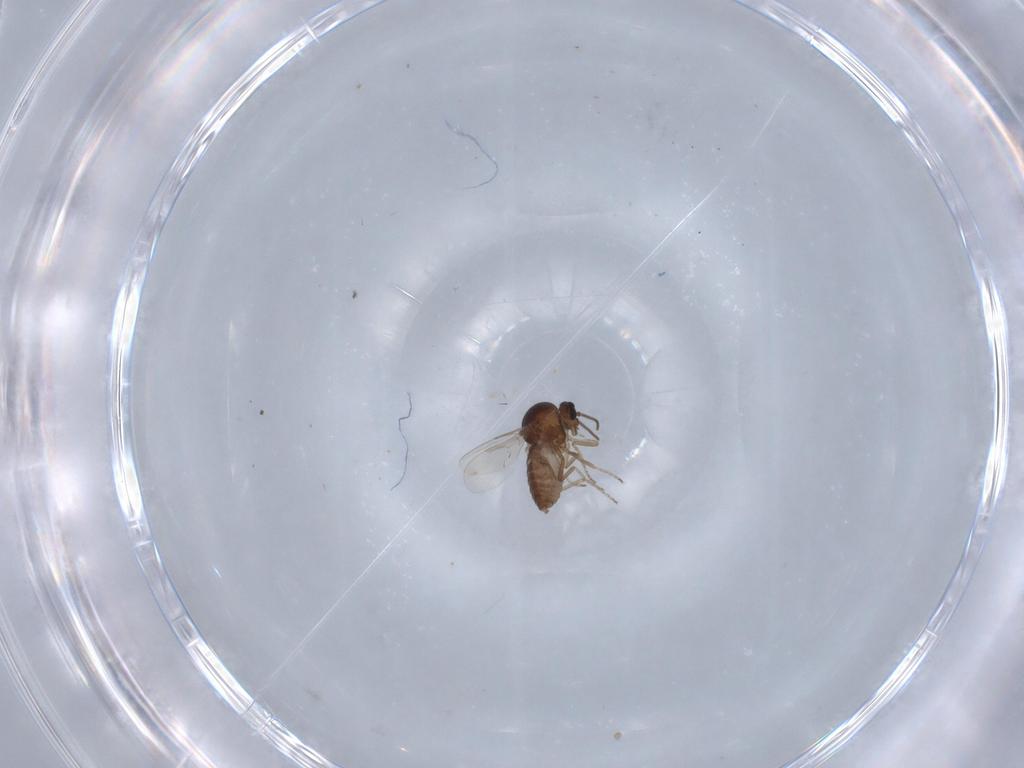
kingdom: Animalia
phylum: Arthropoda
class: Insecta
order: Diptera
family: Ceratopogonidae
